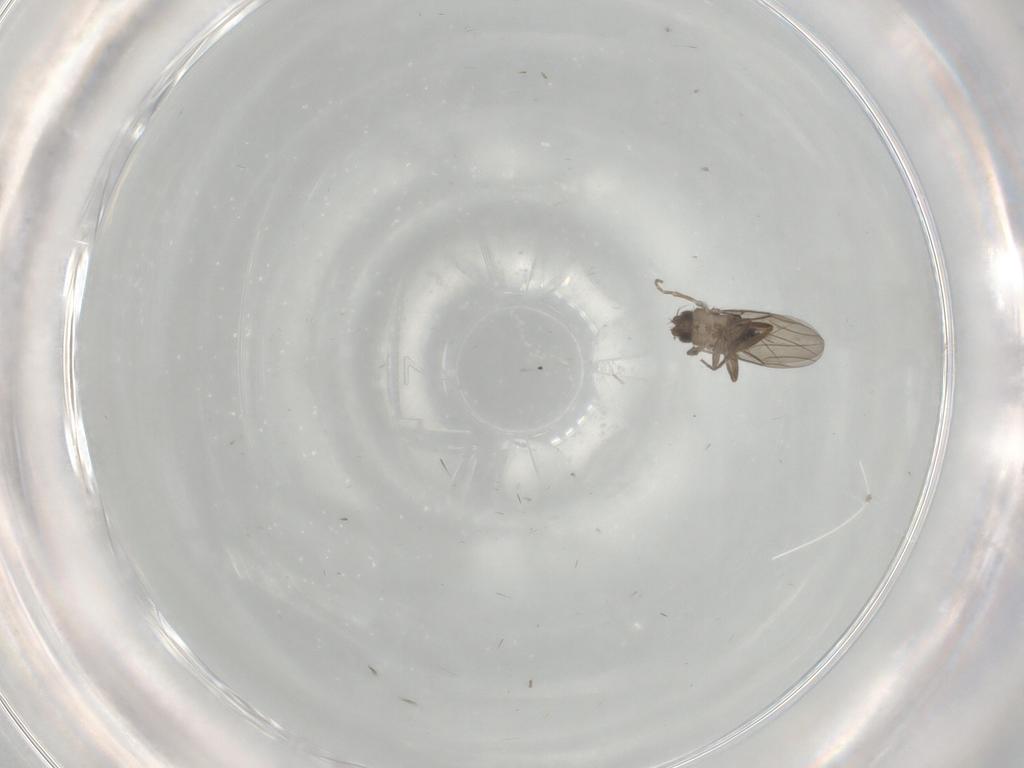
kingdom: Animalia
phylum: Arthropoda
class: Insecta
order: Diptera
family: Phoridae
